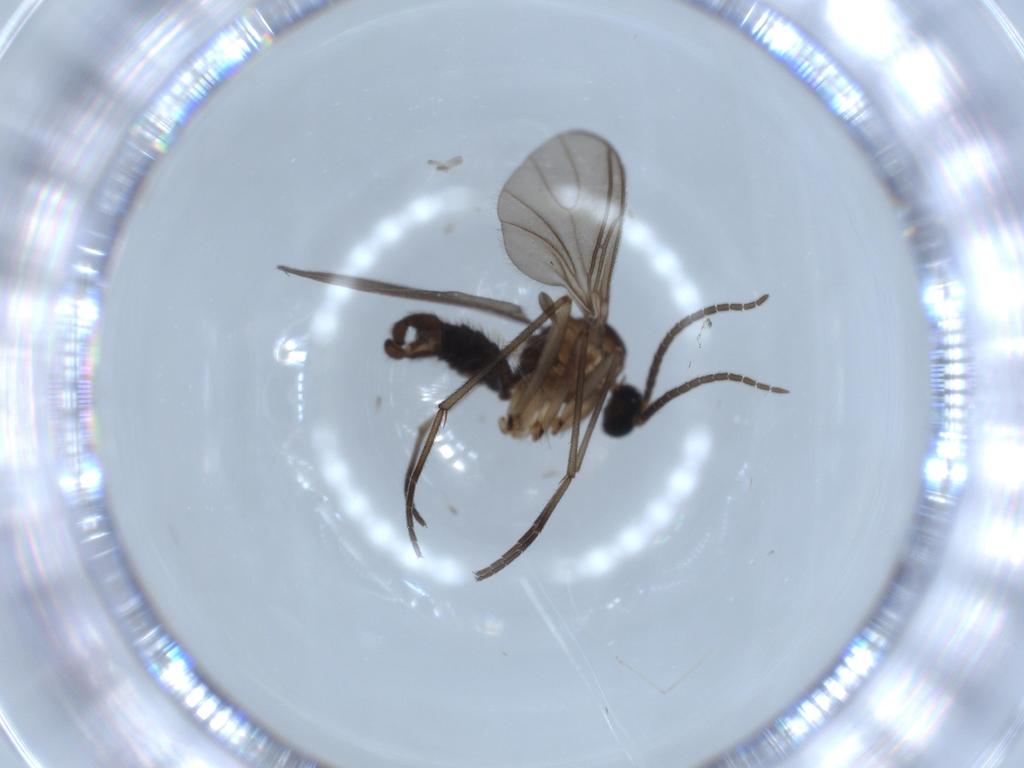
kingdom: Animalia
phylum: Arthropoda
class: Insecta
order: Diptera
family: Sciaridae
